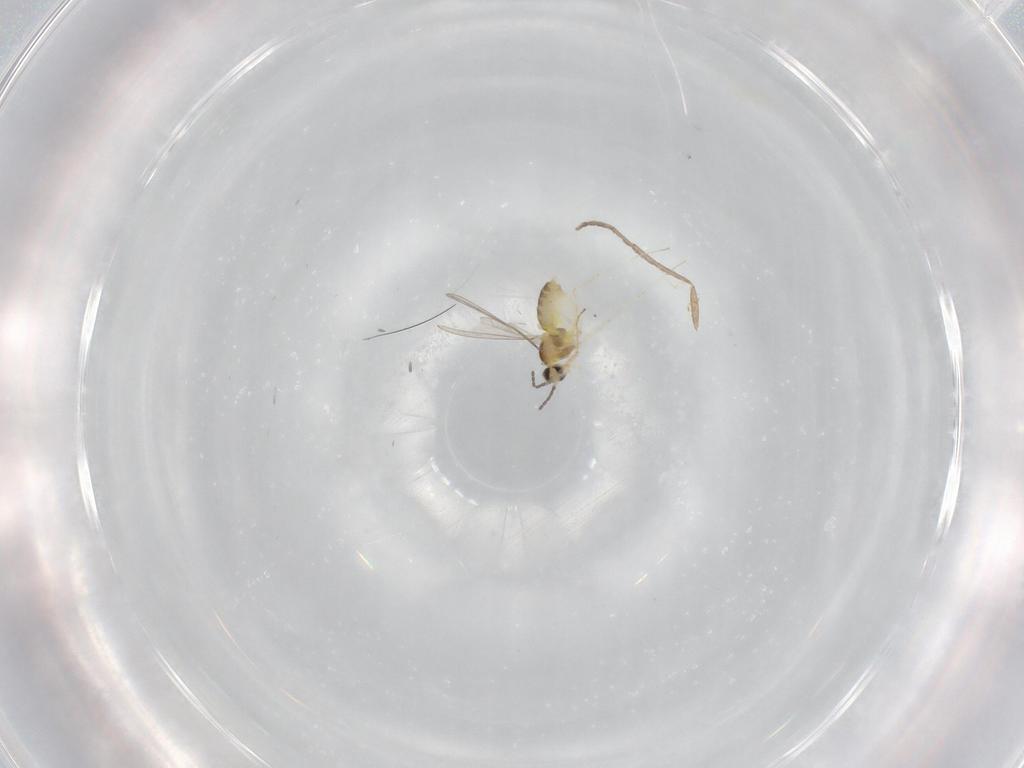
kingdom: Animalia
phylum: Arthropoda
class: Insecta
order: Diptera
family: Cecidomyiidae
